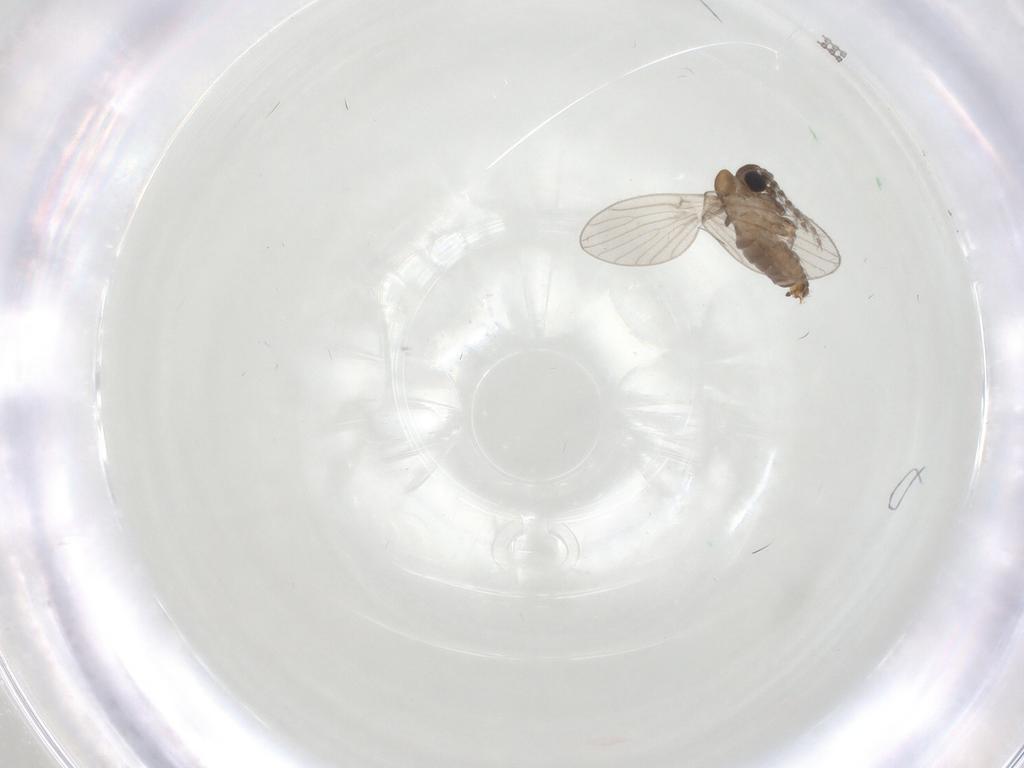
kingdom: Animalia
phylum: Arthropoda
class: Insecta
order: Diptera
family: Psychodidae
